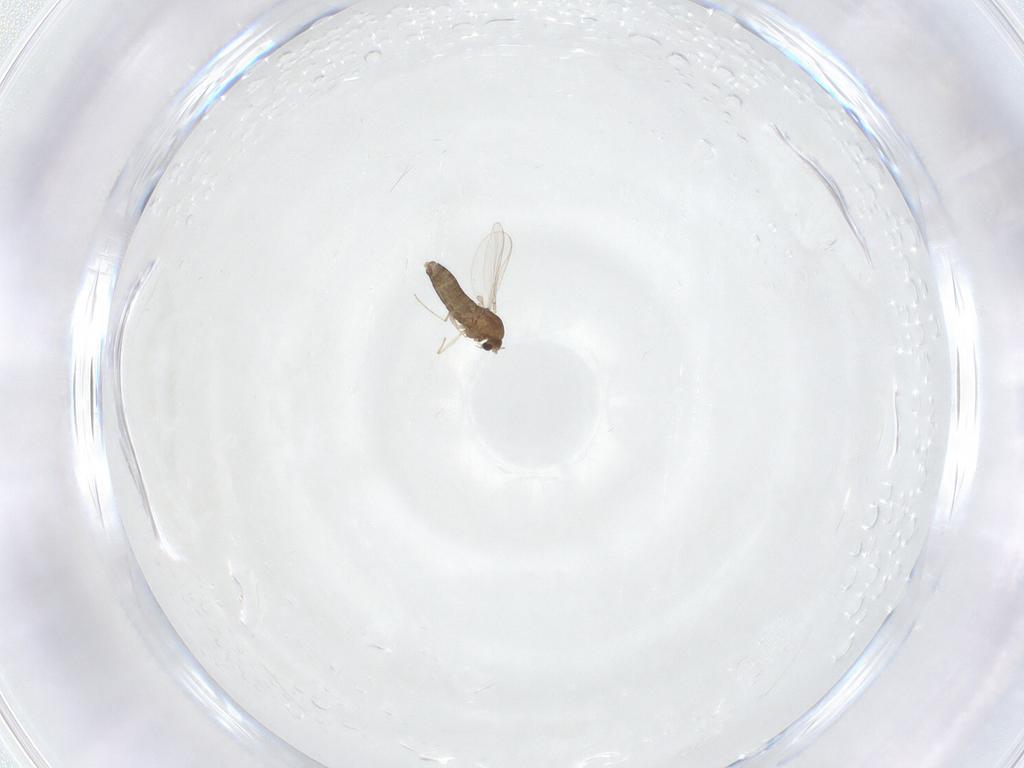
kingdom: Animalia
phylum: Arthropoda
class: Insecta
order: Diptera
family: Chironomidae
